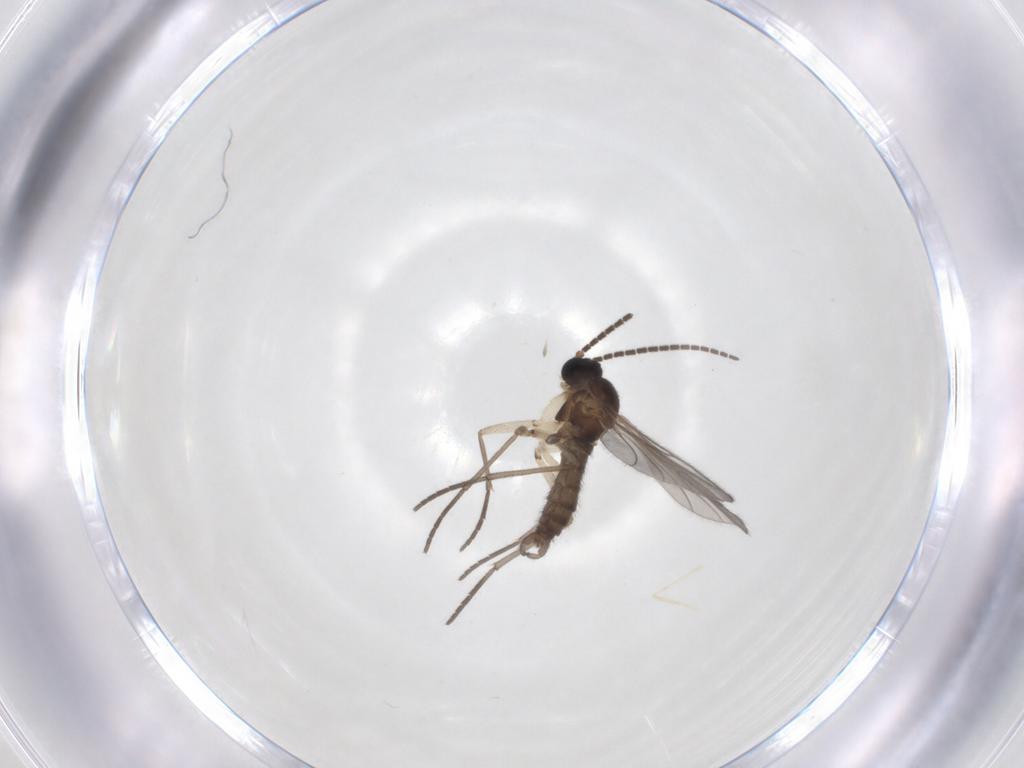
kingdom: Animalia
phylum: Arthropoda
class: Insecta
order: Diptera
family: Sciaridae
